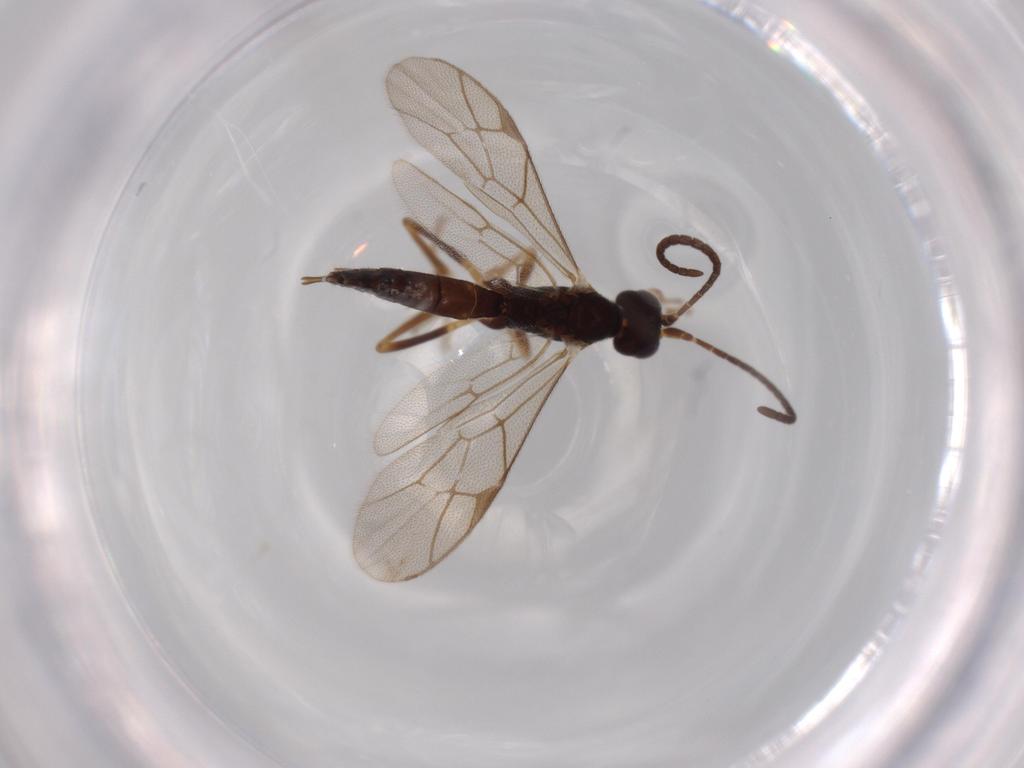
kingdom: Animalia
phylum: Arthropoda
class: Insecta
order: Hymenoptera
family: Ichneumonidae
